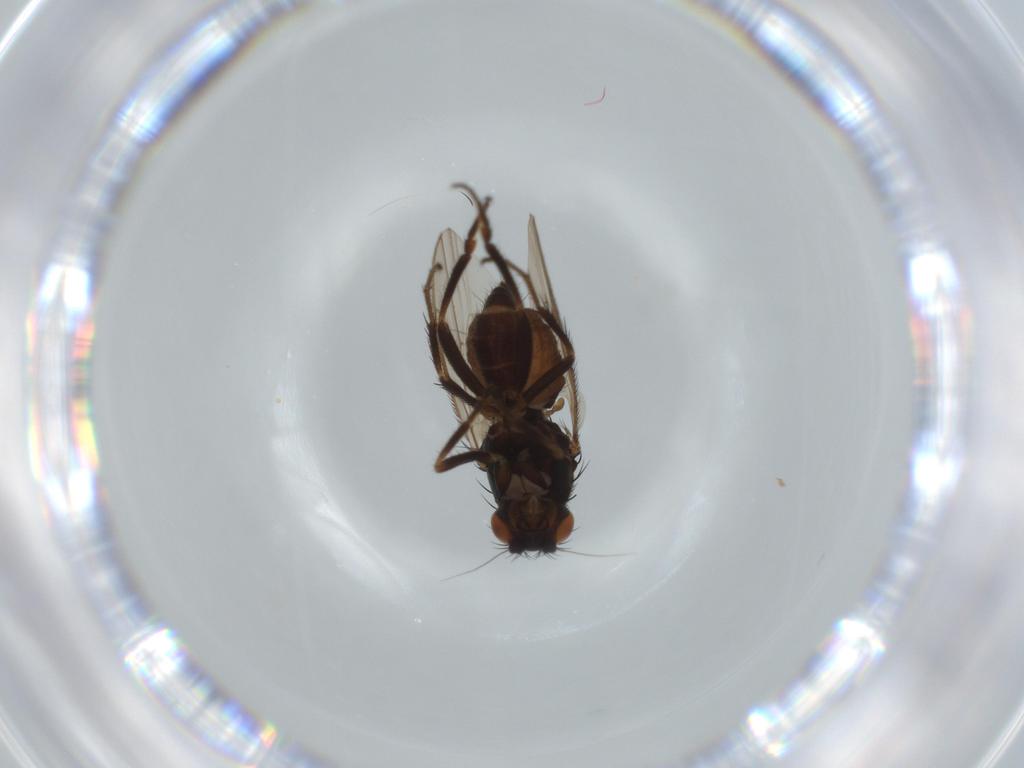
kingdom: Animalia
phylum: Arthropoda
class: Insecta
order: Diptera
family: Sphaeroceridae
